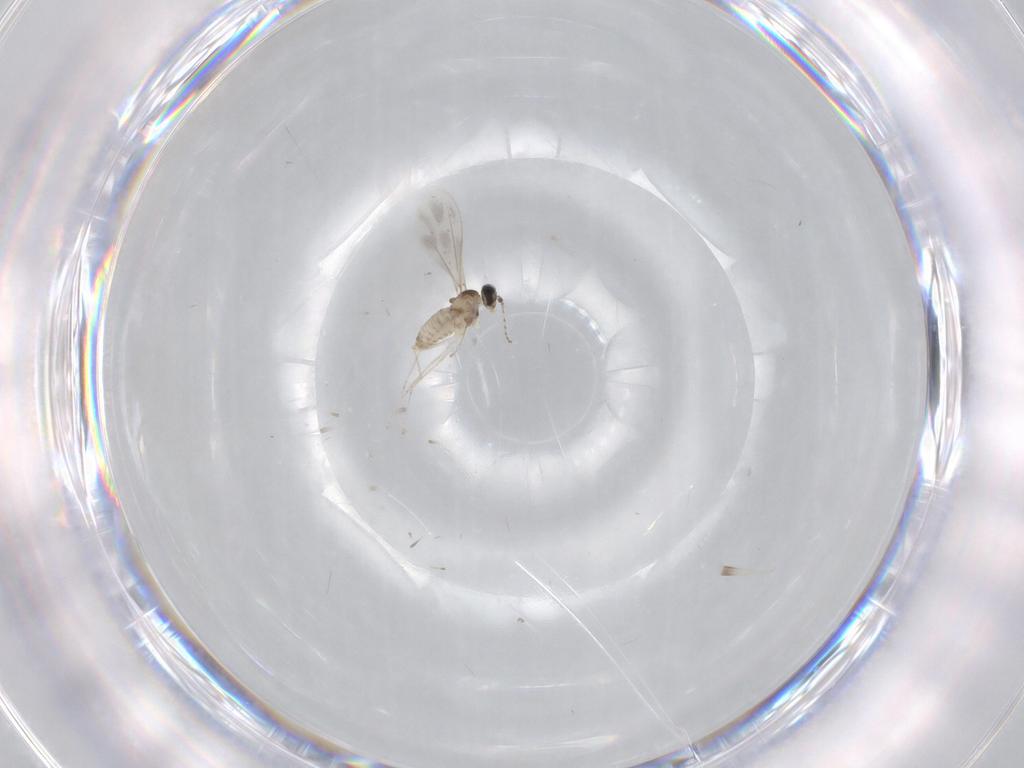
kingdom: Animalia
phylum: Arthropoda
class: Insecta
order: Diptera
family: Cecidomyiidae
